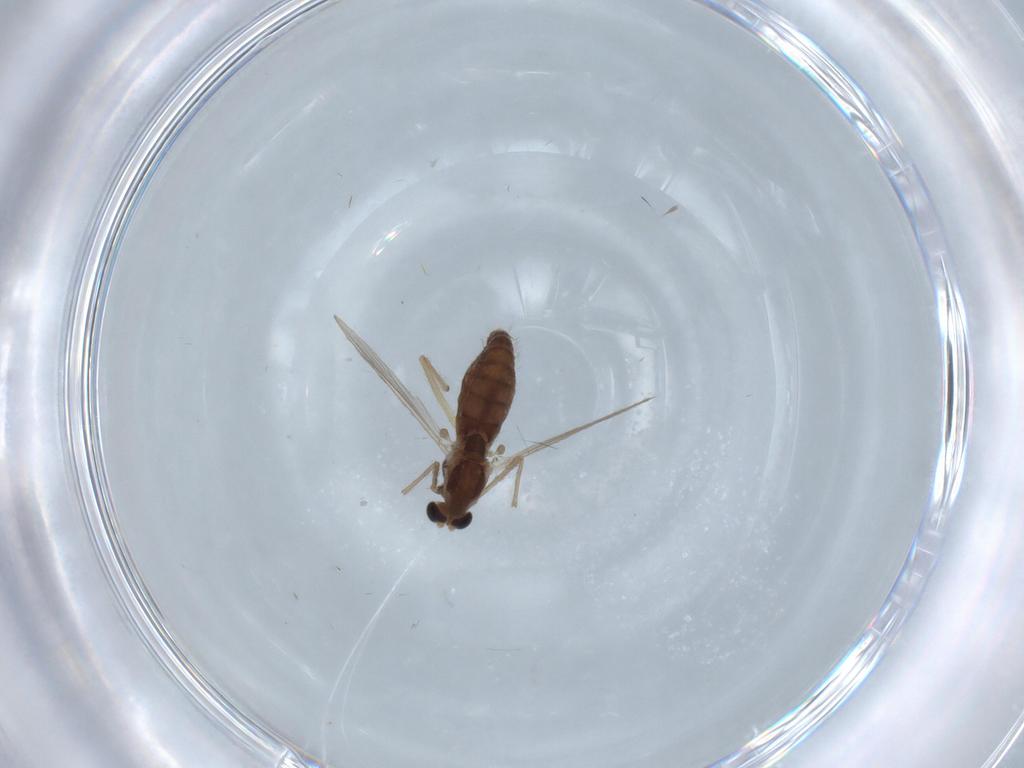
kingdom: Animalia
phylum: Arthropoda
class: Insecta
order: Diptera
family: Chironomidae
